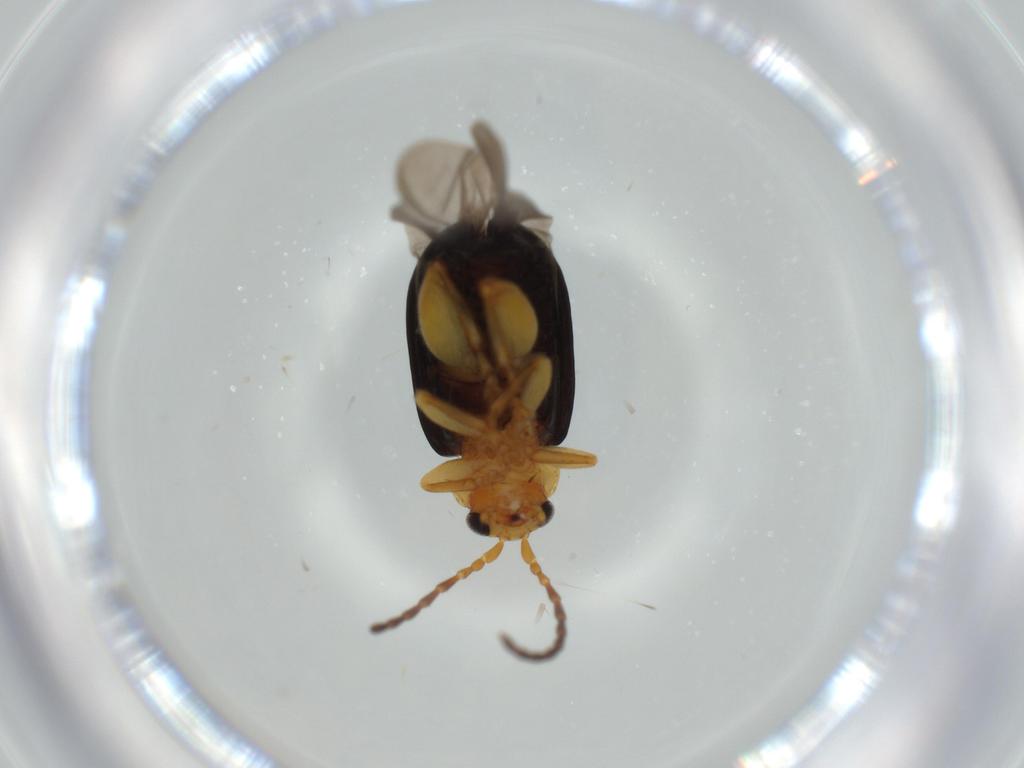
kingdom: Animalia
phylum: Arthropoda
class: Insecta
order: Coleoptera
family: Chrysomelidae
